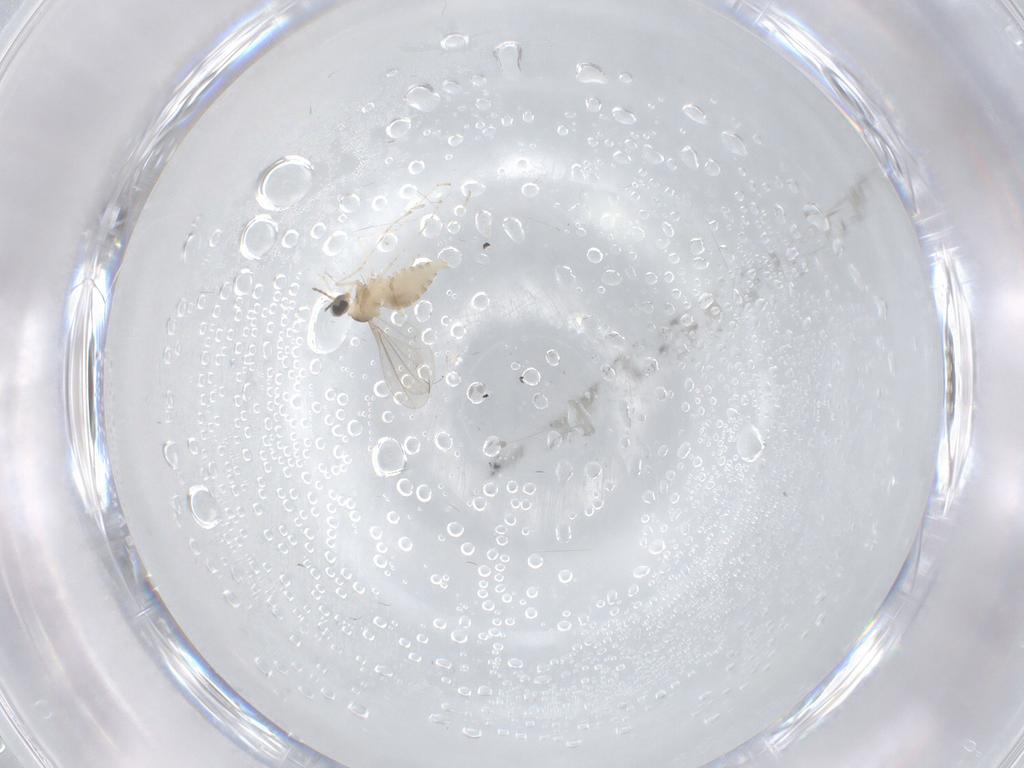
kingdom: Animalia
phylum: Arthropoda
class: Insecta
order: Diptera
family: Cecidomyiidae
